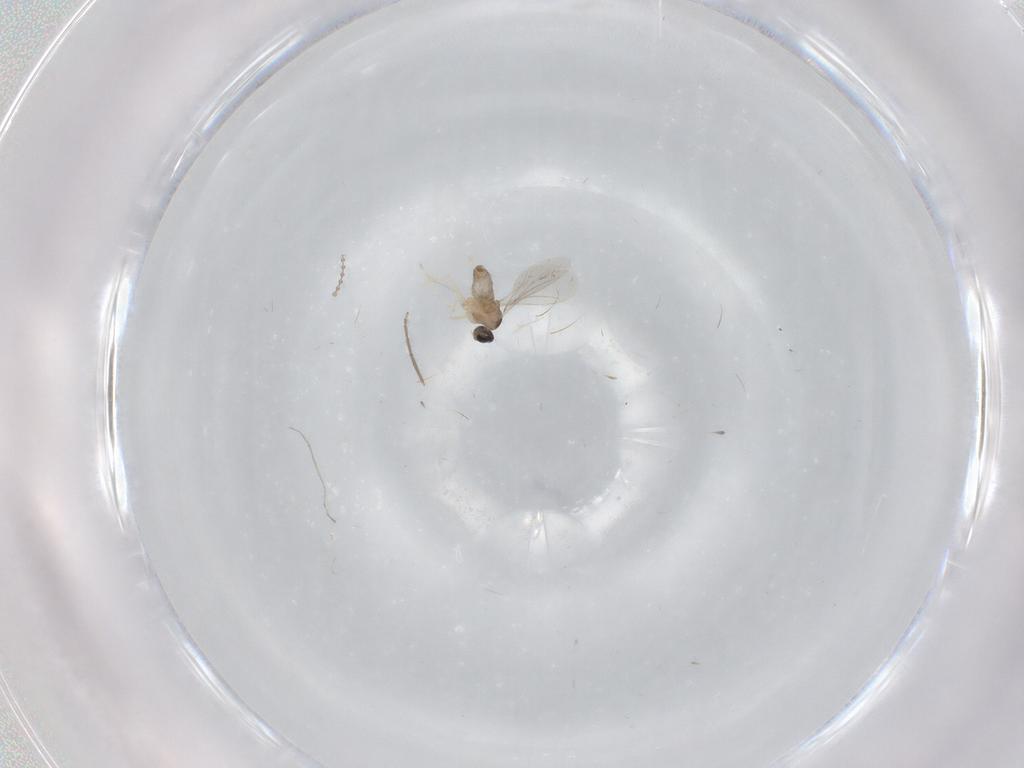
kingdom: Animalia
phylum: Arthropoda
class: Insecta
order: Diptera
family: Cecidomyiidae
